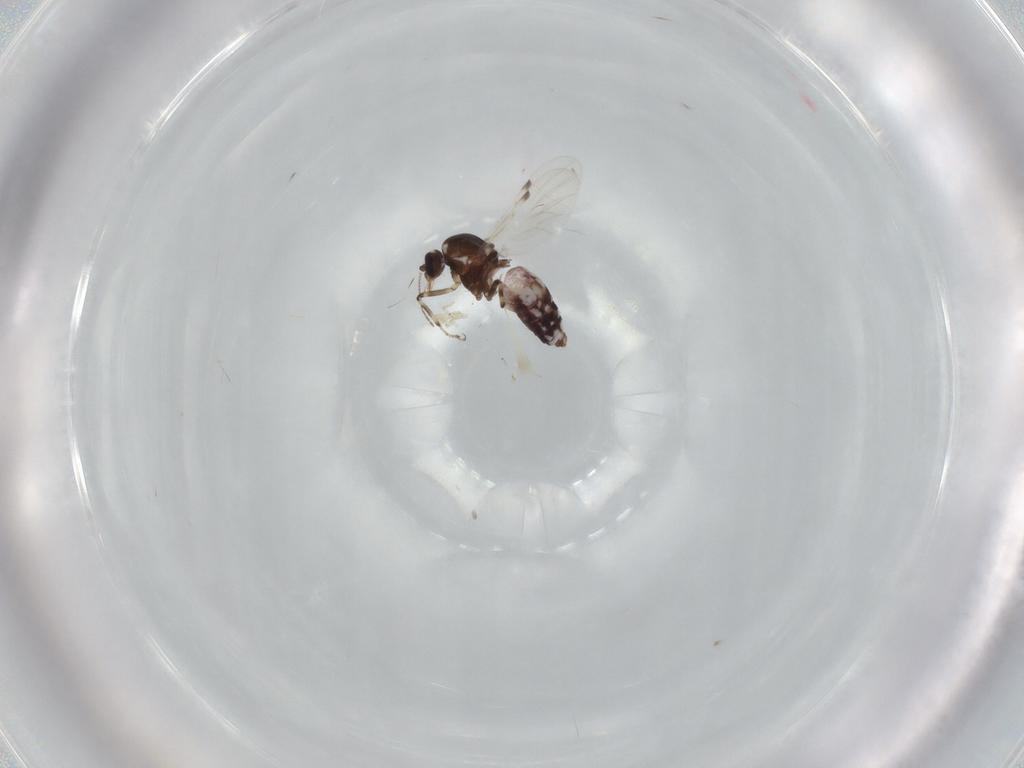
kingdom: Animalia
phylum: Arthropoda
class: Insecta
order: Diptera
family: Ceratopogonidae
